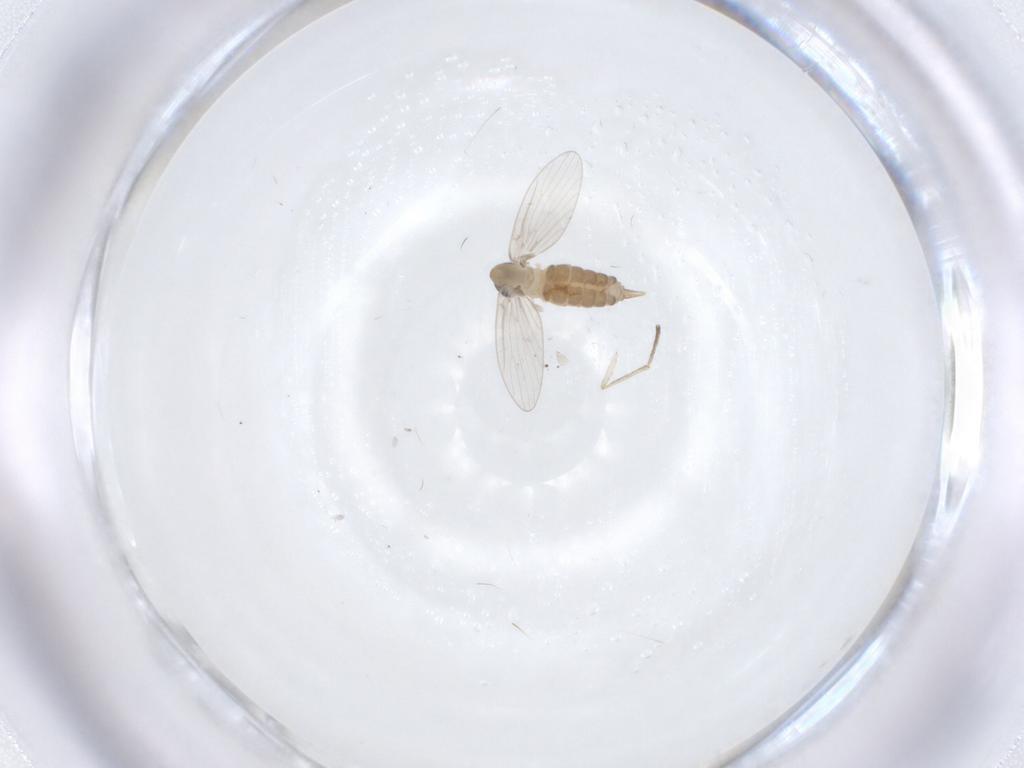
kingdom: Animalia
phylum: Arthropoda
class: Insecta
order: Diptera
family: Psychodidae
